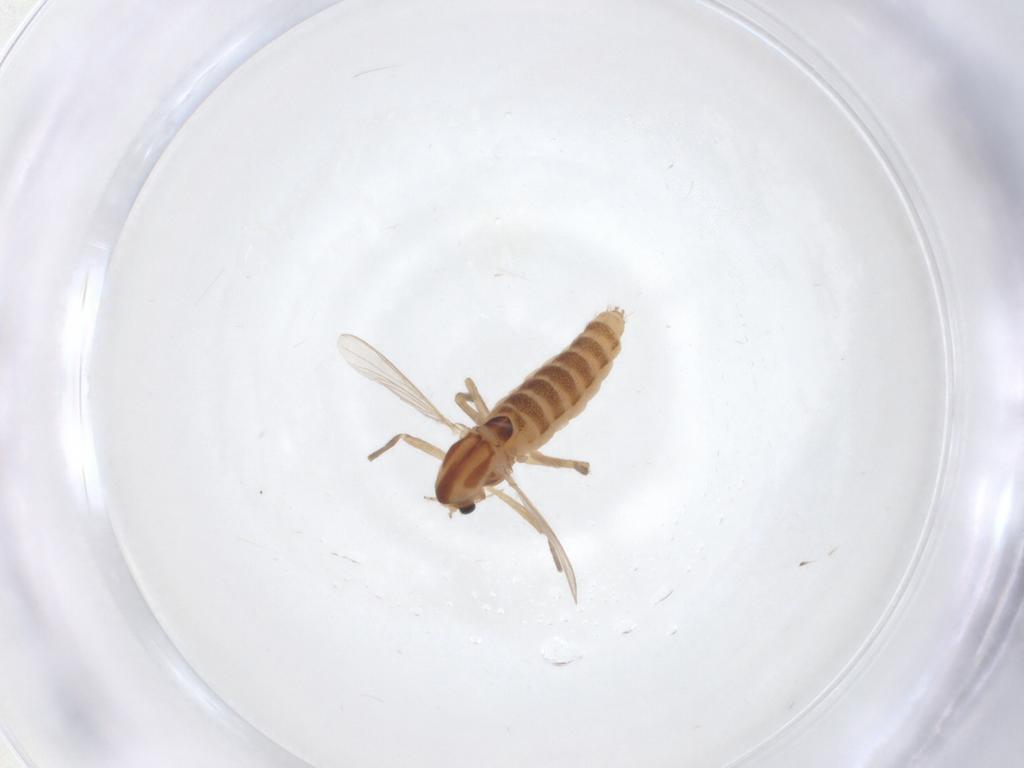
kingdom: Animalia
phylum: Arthropoda
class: Insecta
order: Diptera
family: Chironomidae
